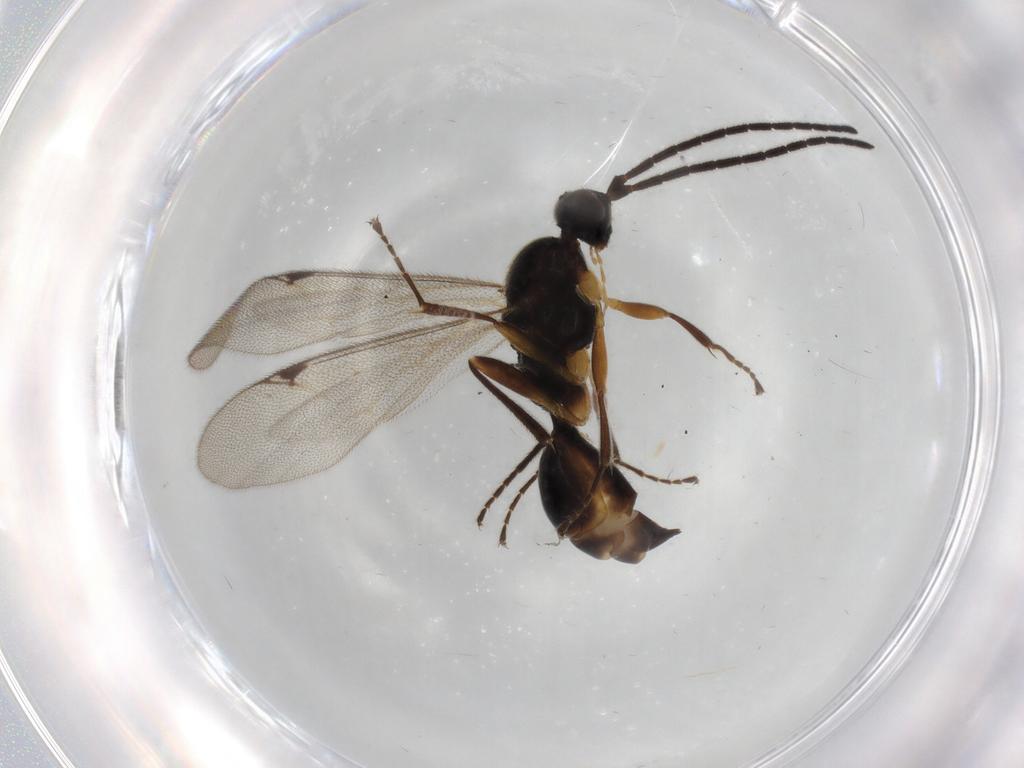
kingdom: Animalia
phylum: Arthropoda
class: Insecta
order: Hymenoptera
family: Proctotrupidae
